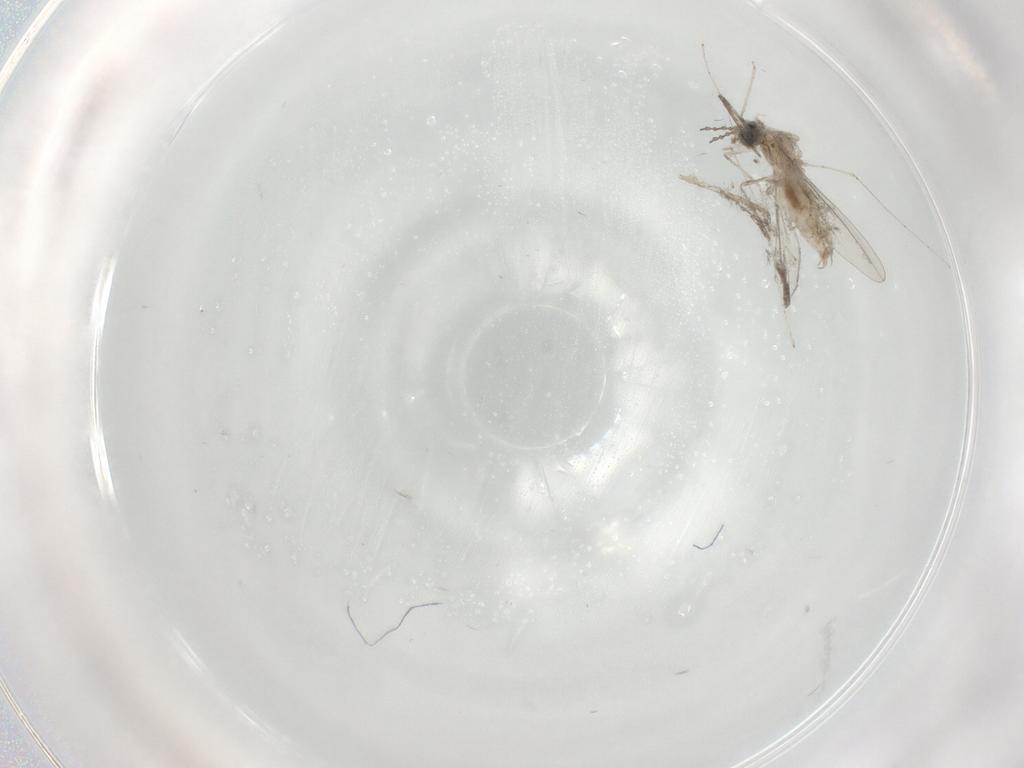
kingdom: Animalia
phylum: Arthropoda
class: Insecta
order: Diptera
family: Cecidomyiidae
